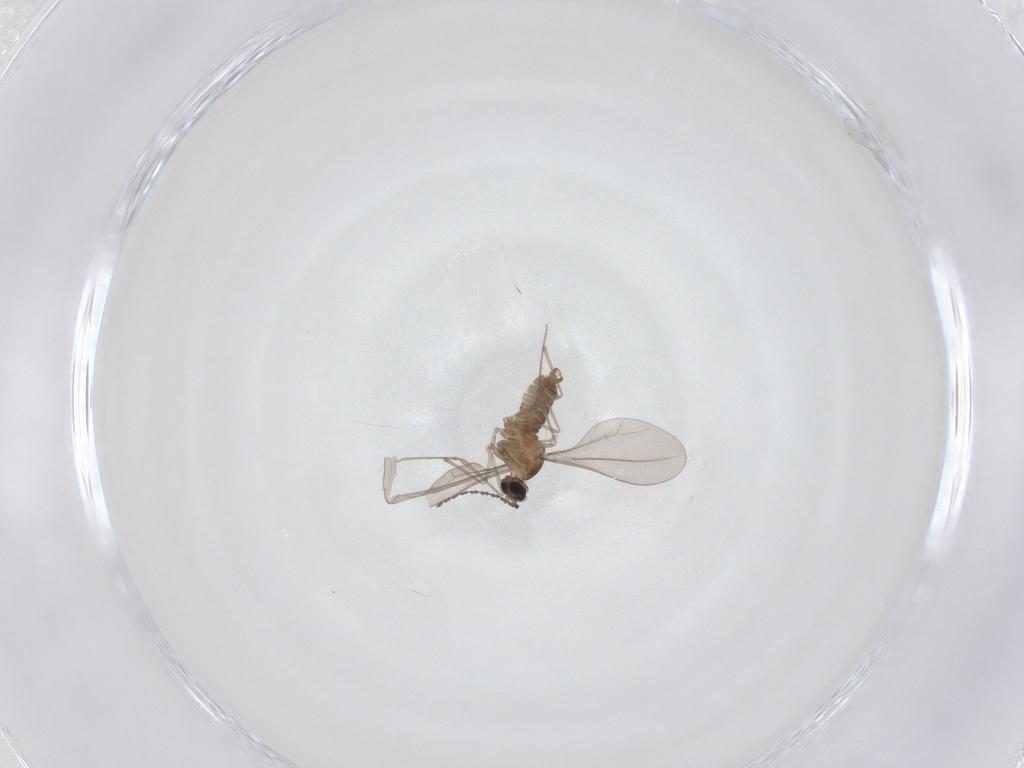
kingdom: Animalia
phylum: Arthropoda
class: Insecta
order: Diptera
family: Cecidomyiidae
